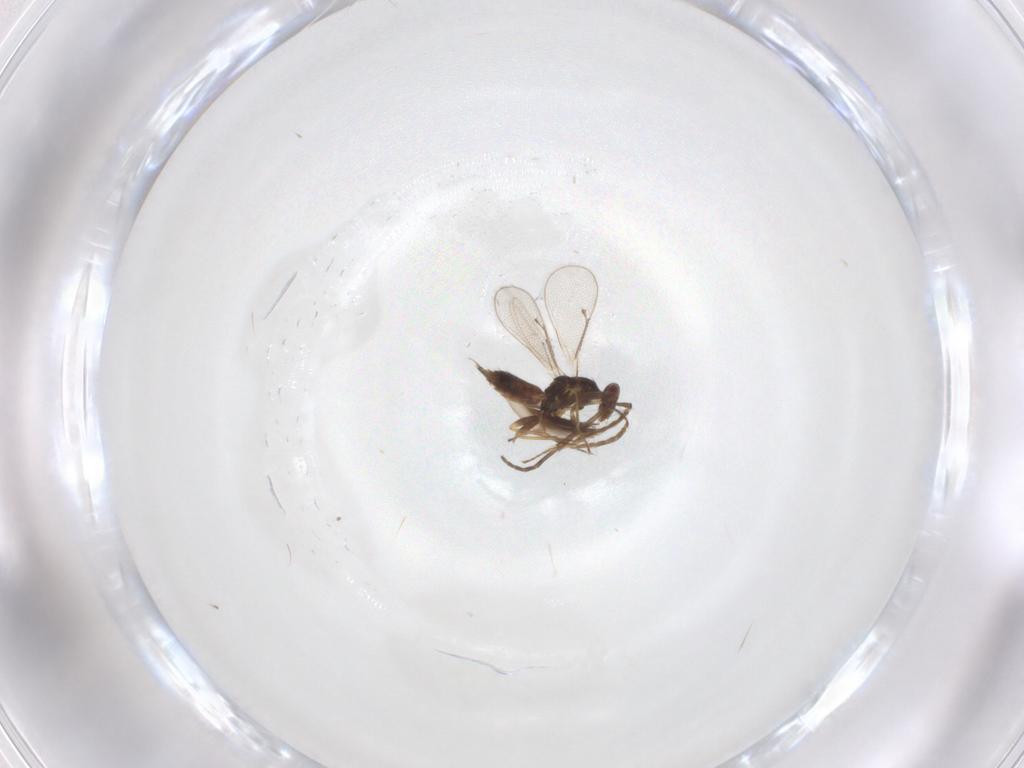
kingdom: Animalia
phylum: Arthropoda
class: Insecta
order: Hymenoptera
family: Eulophidae
